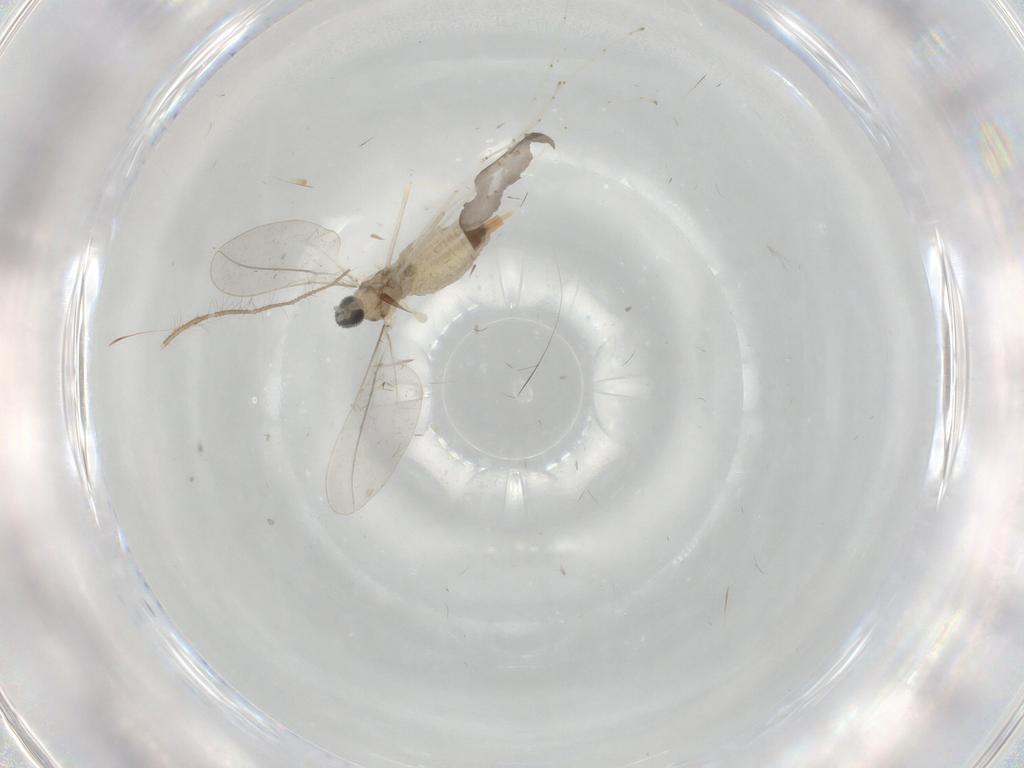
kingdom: Animalia
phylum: Arthropoda
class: Insecta
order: Diptera
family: Cecidomyiidae
